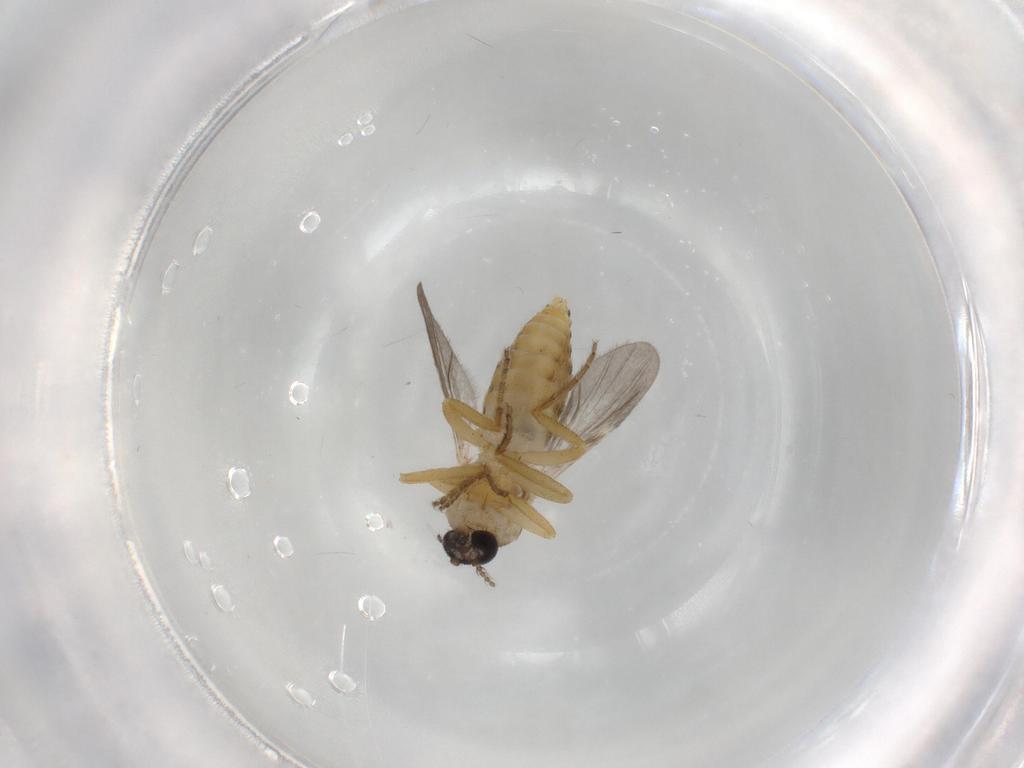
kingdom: Animalia
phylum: Arthropoda
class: Insecta
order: Diptera
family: Ceratopogonidae
